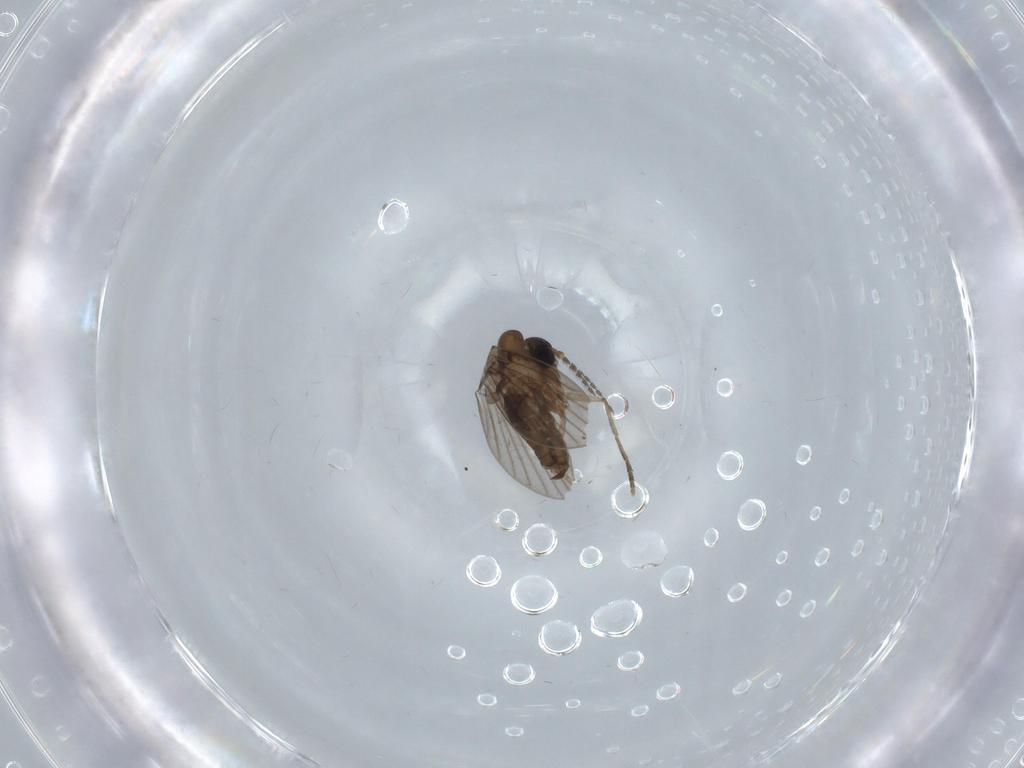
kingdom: Animalia
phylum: Arthropoda
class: Insecta
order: Diptera
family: Psychodidae
